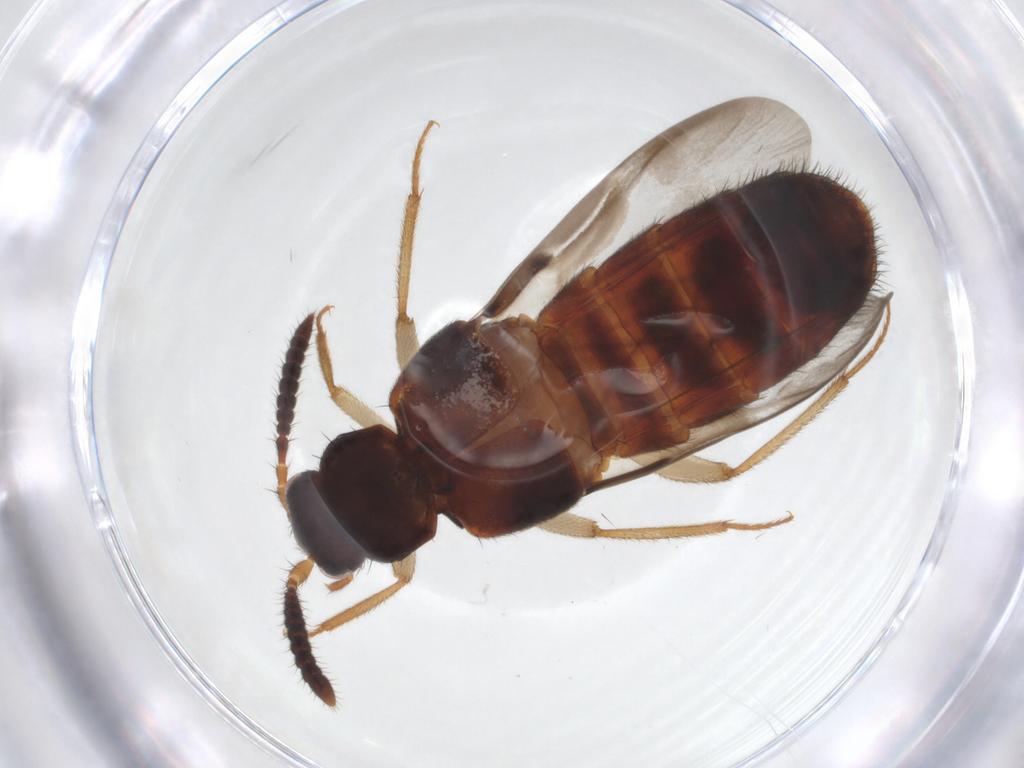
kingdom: Animalia
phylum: Arthropoda
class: Insecta
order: Coleoptera
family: Staphylinidae
